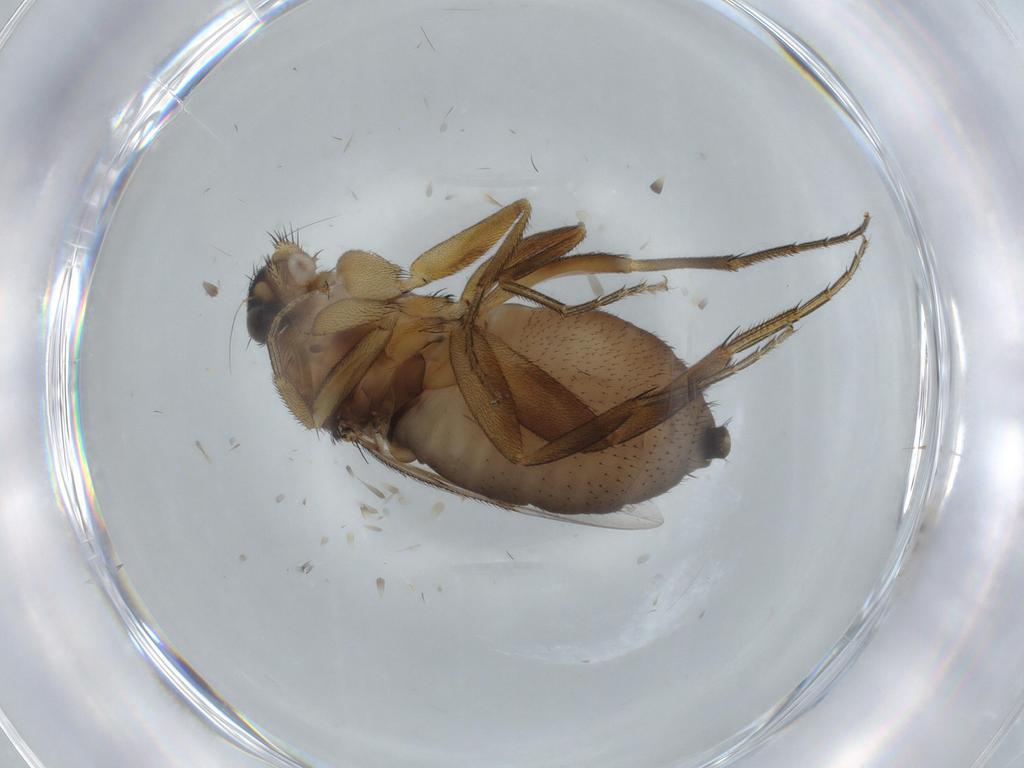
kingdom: Animalia
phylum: Arthropoda
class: Insecta
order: Diptera
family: Phoridae
